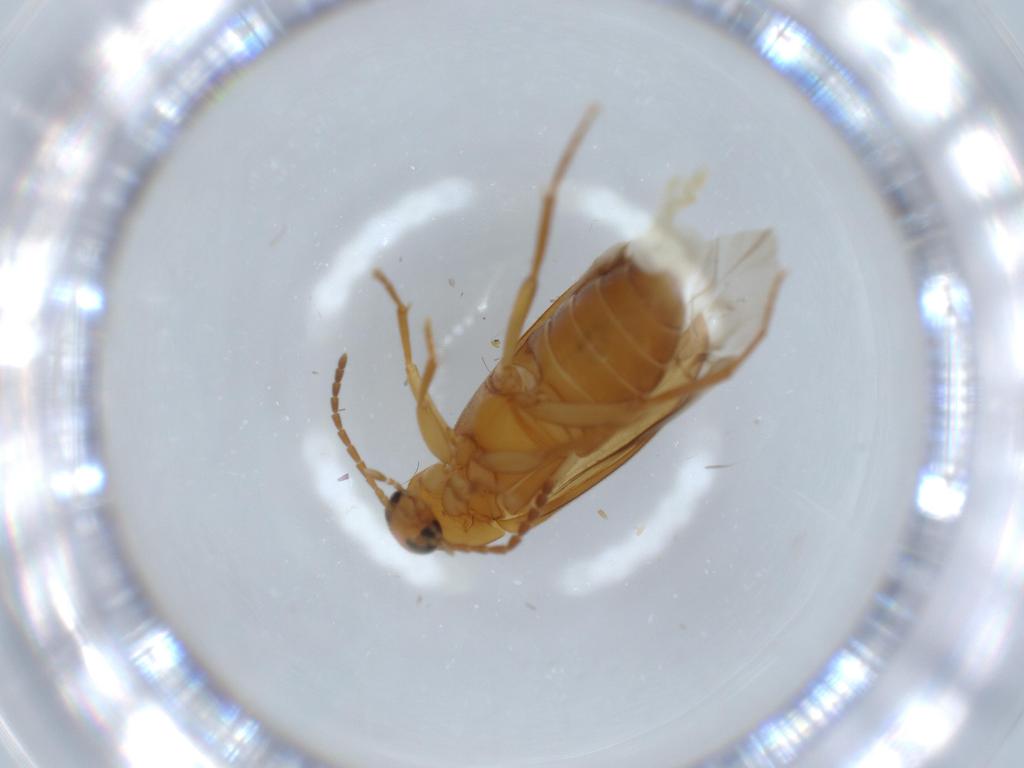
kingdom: Animalia
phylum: Arthropoda
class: Insecta
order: Coleoptera
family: Scraptiidae
